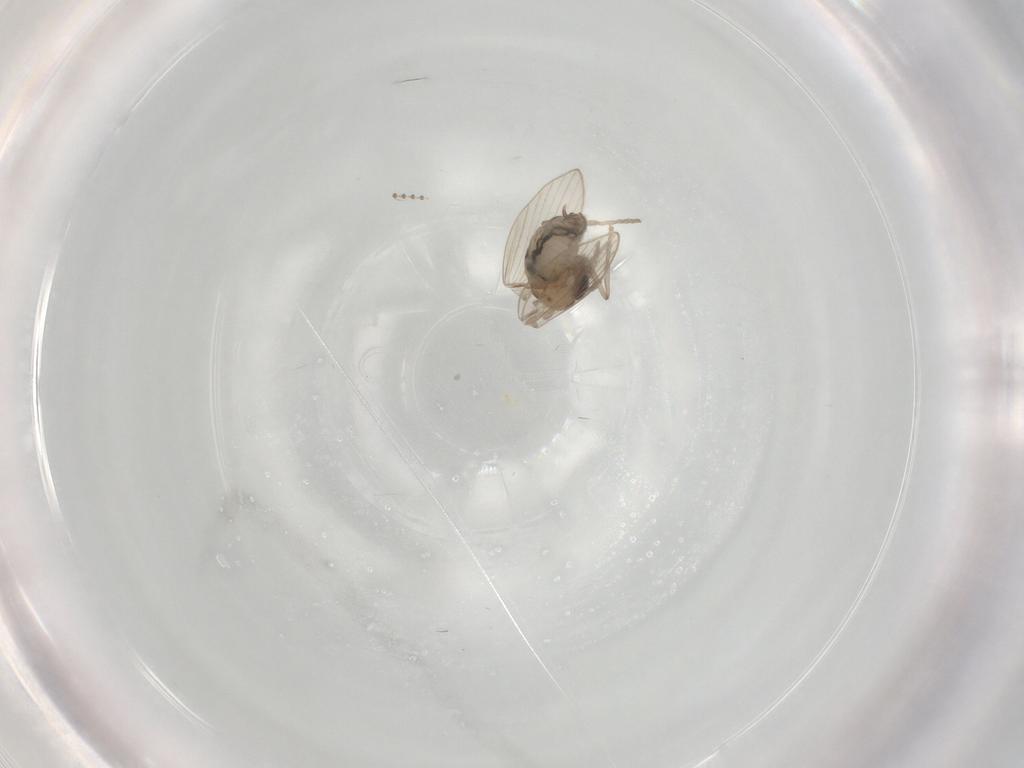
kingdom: Animalia
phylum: Arthropoda
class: Insecta
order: Diptera
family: Psychodidae
